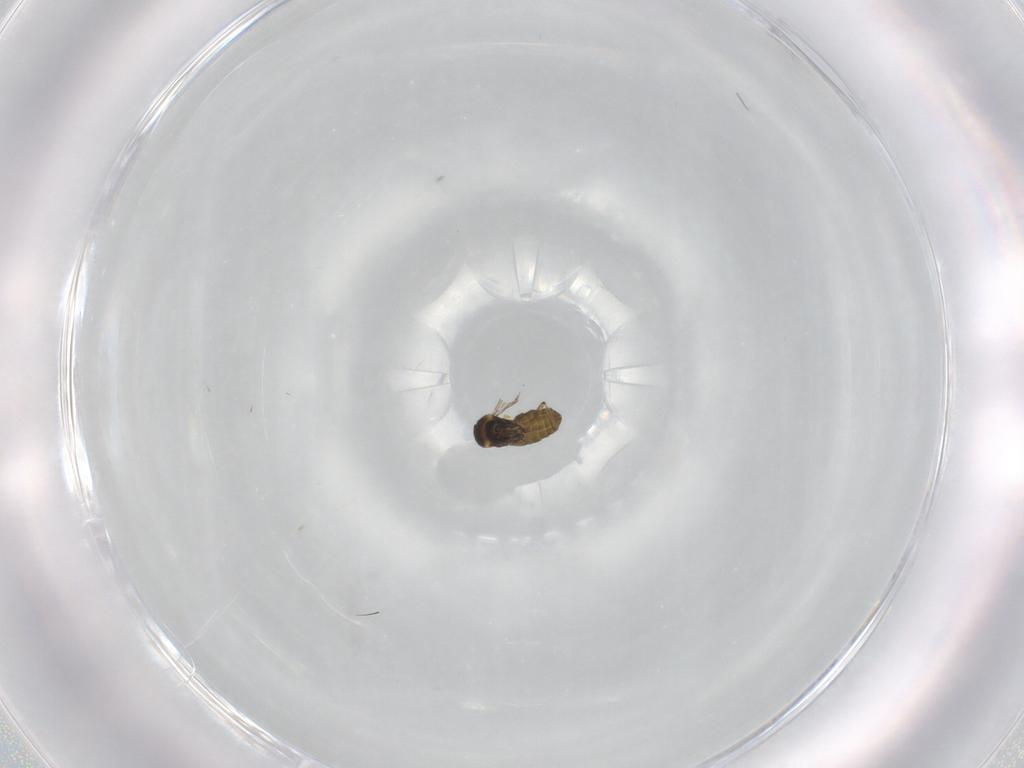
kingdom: Animalia
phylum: Arthropoda
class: Insecta
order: Diptera
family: Ceratopogonidae
